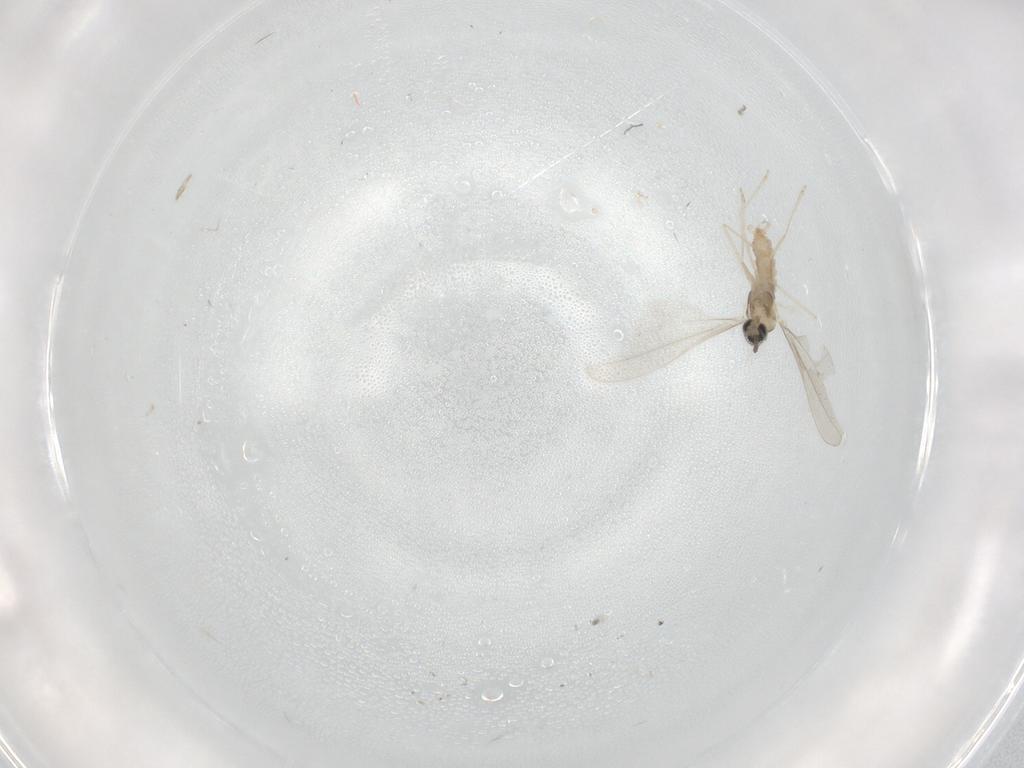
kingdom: Animalia
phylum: Arthropoda
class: Insecta
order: Diptera
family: Cecidomyiidae
